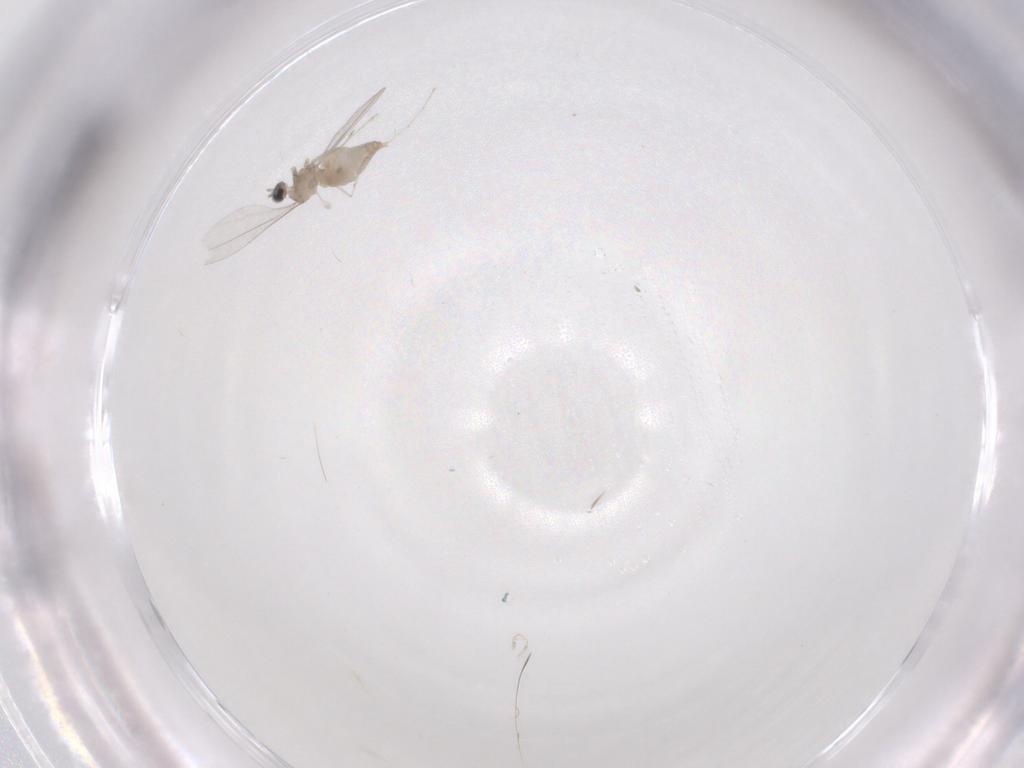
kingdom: Animalia
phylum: Arthropoda
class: Insecta
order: Diptera
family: Cecidomyiidae
